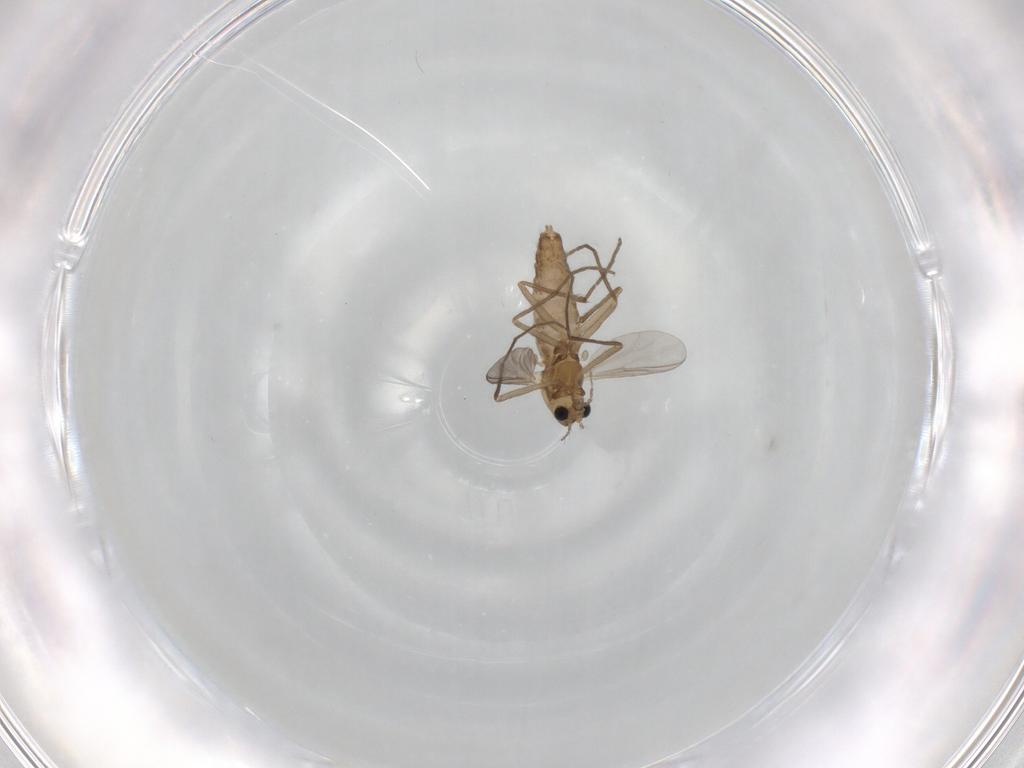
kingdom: Animalia
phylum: Arthropoda
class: Insecta
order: Diptera
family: Chironomidae
